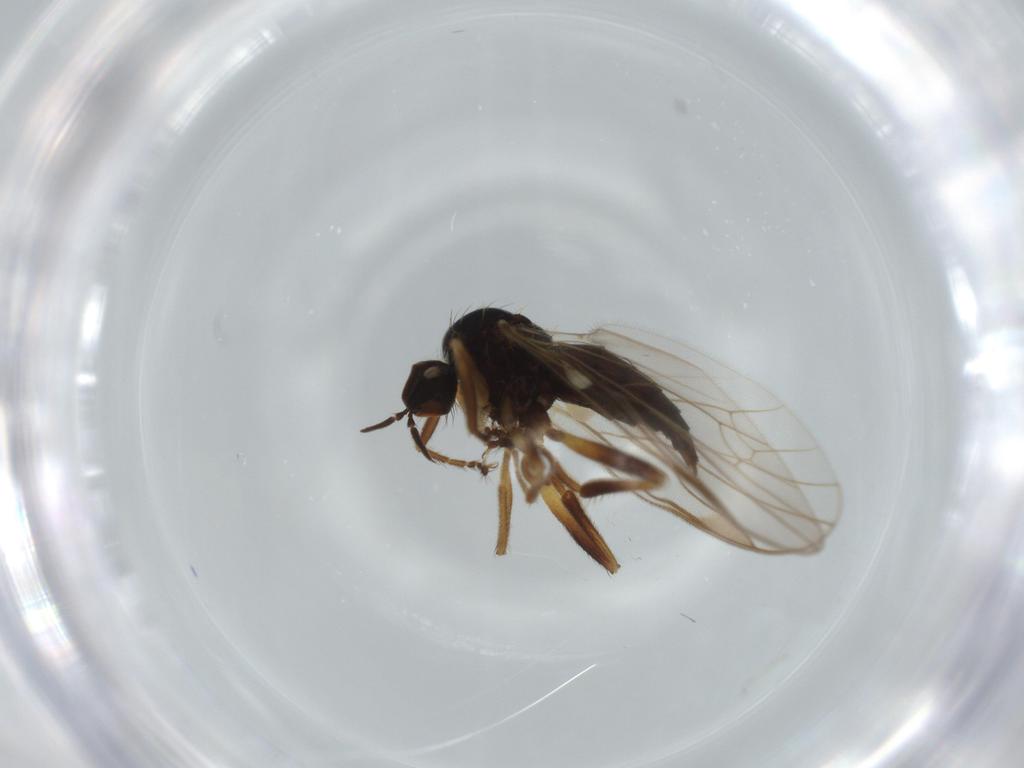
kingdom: Animalia
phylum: Arthropoda
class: Insecta
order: Diptera
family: Hybotidae
